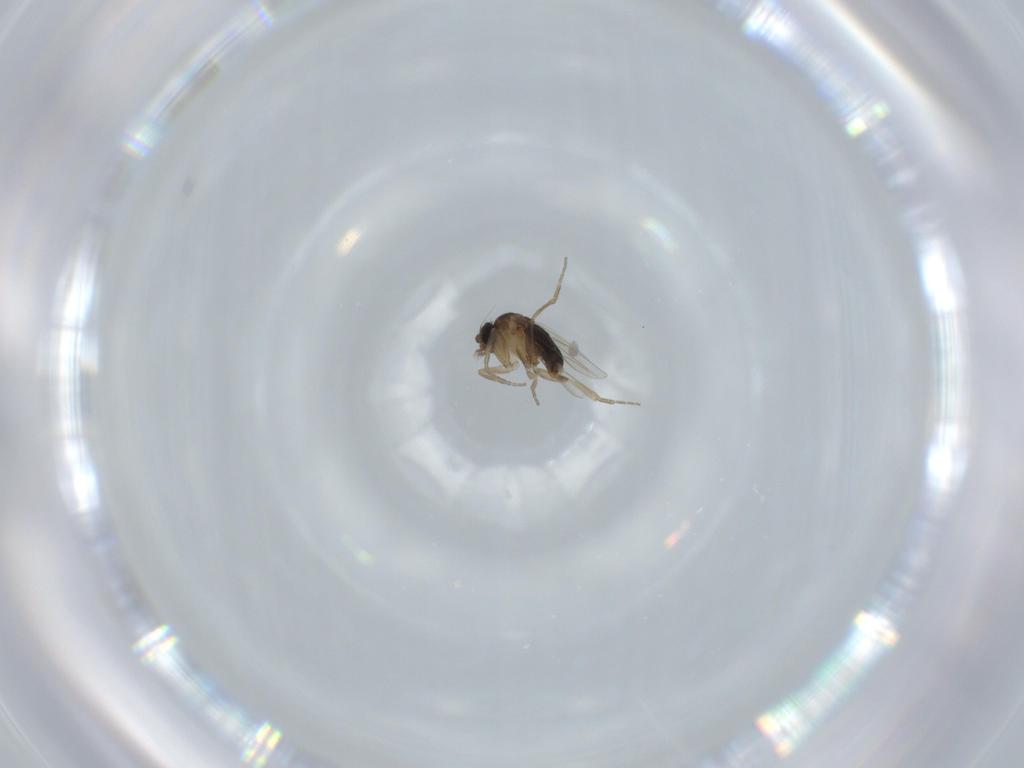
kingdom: Animalia
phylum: Arthropoda
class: Insecta
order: Diptera
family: Phoridae
